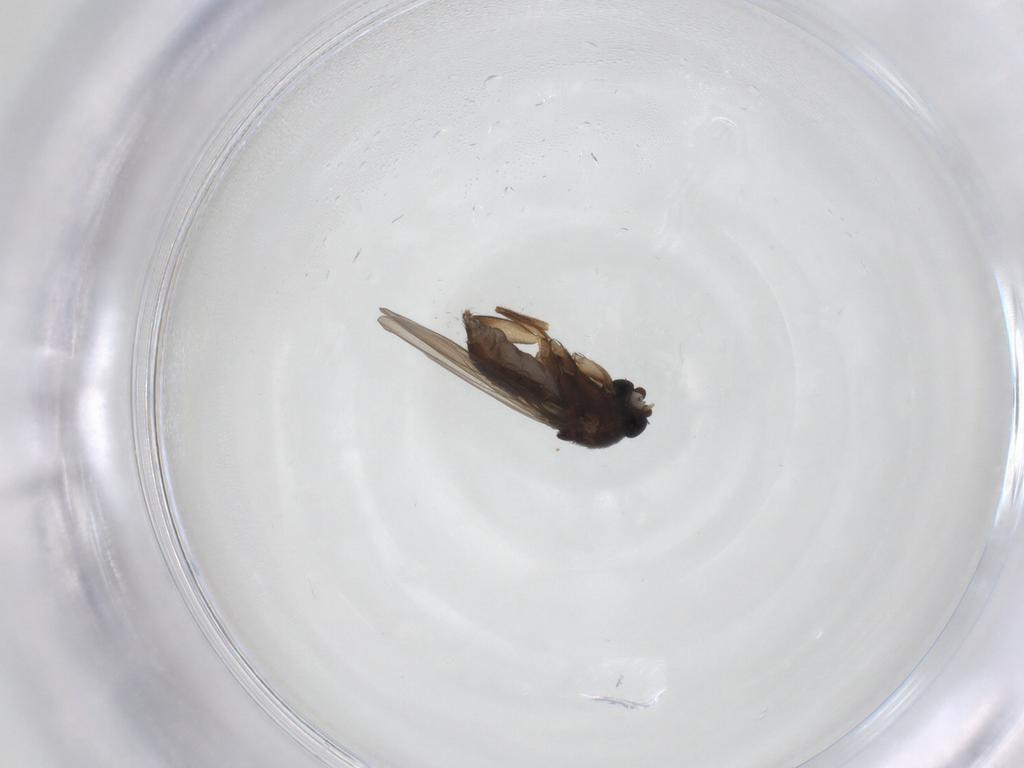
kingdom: Animalia
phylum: Arthropoda
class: Insecta
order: Diptera
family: Phoridae
